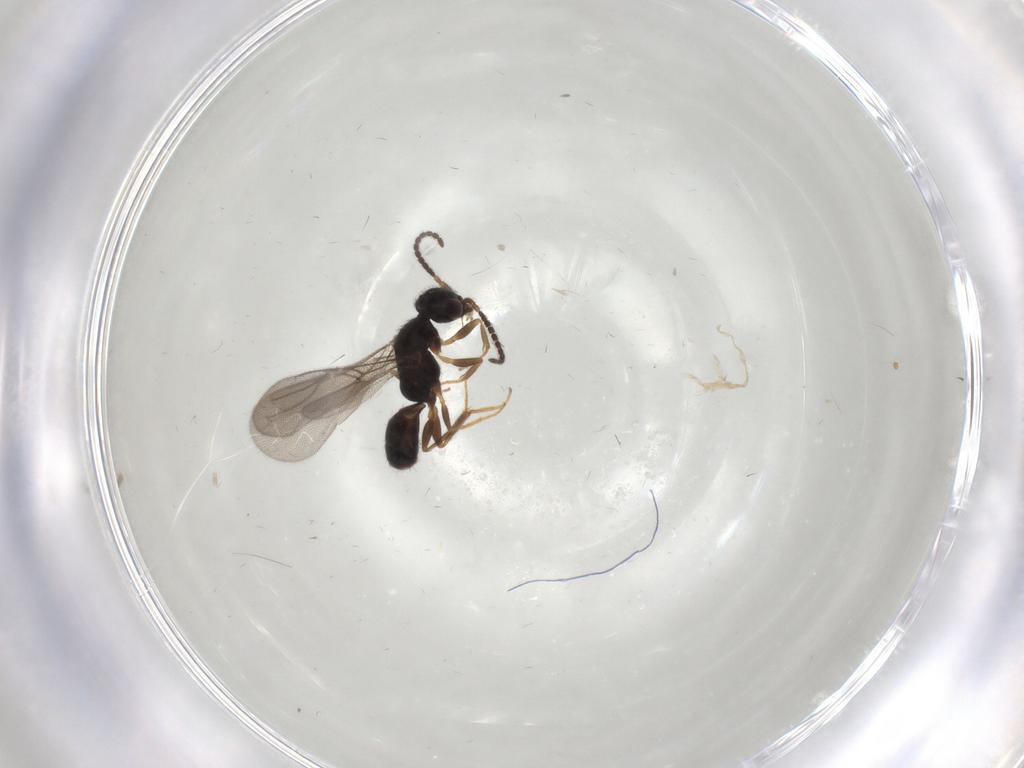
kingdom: Animalia
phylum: Arthropoda
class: Insecta
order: Hymenoptera
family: Bethylidae
